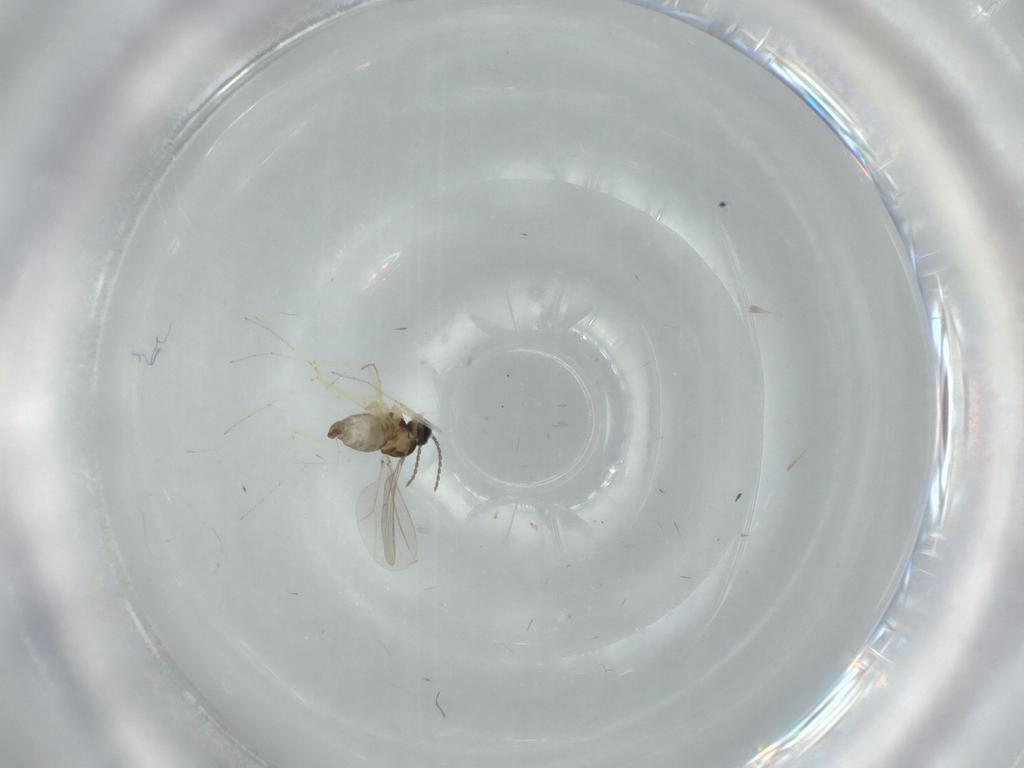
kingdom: Animalia
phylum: Arthropoda
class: Insecta
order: Diptera
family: Cecidomyiidae
